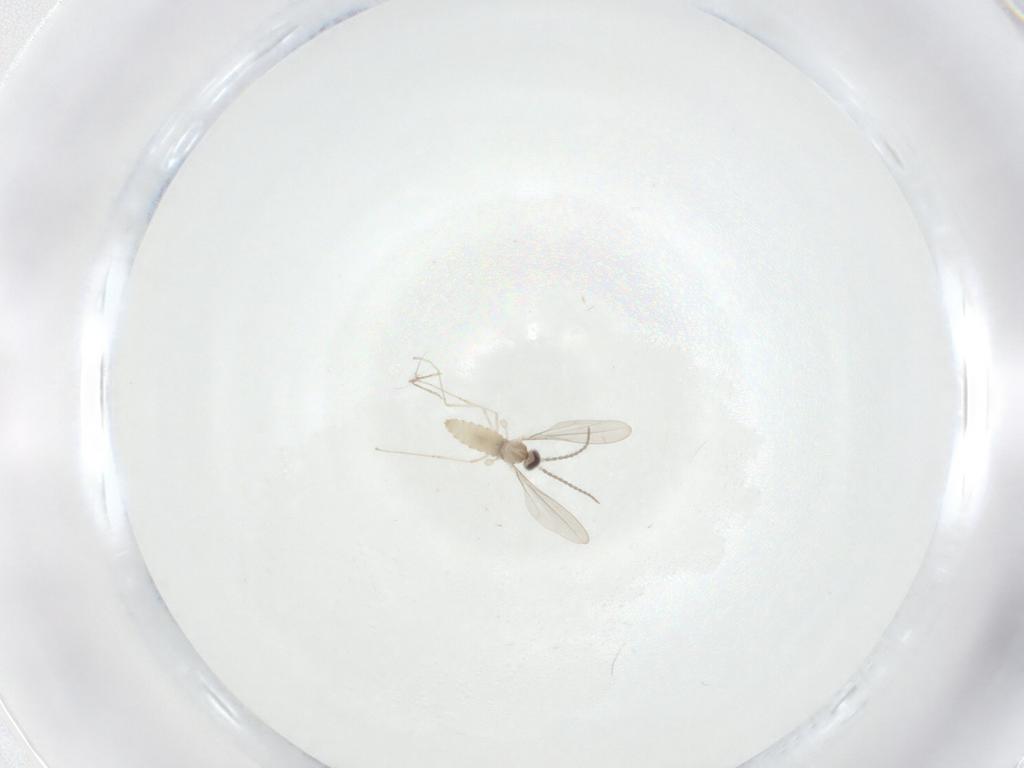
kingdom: Animalia
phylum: Arthropoda
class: Insecta
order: Diptera
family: Cecidomyiidae
